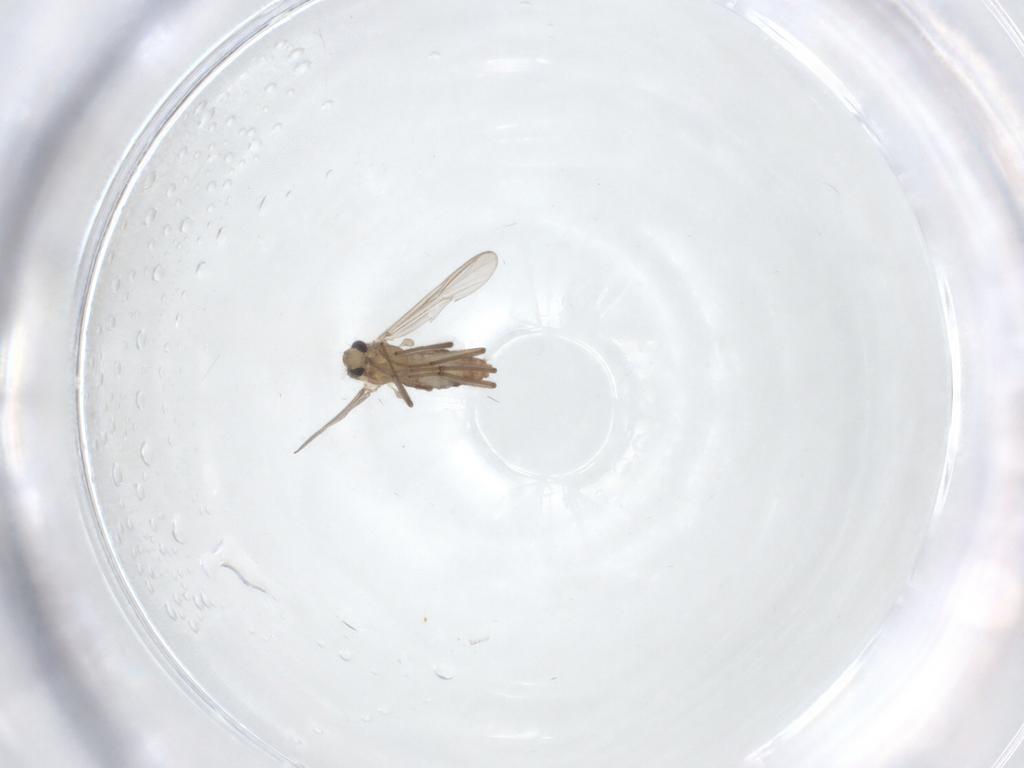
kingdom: Animalia
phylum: Arthropoda
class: Insecta
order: Diptera
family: Chironomidae
